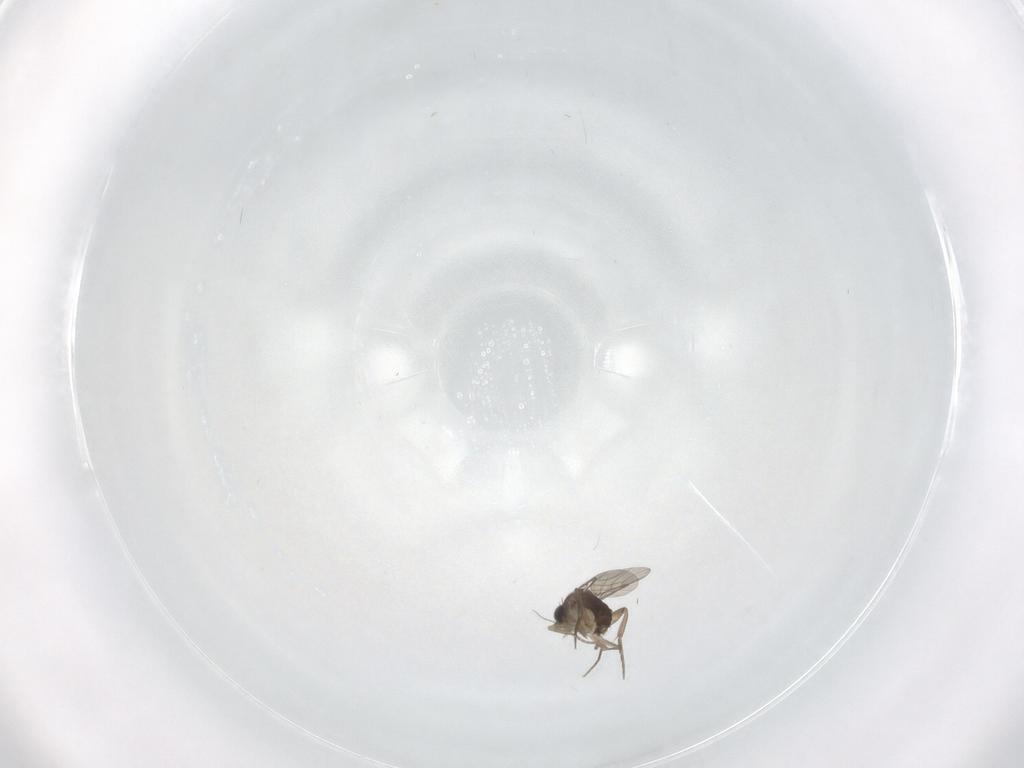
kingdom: Animalia
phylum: Arthropoda
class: Insecta
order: Diptera
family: Phoridae
